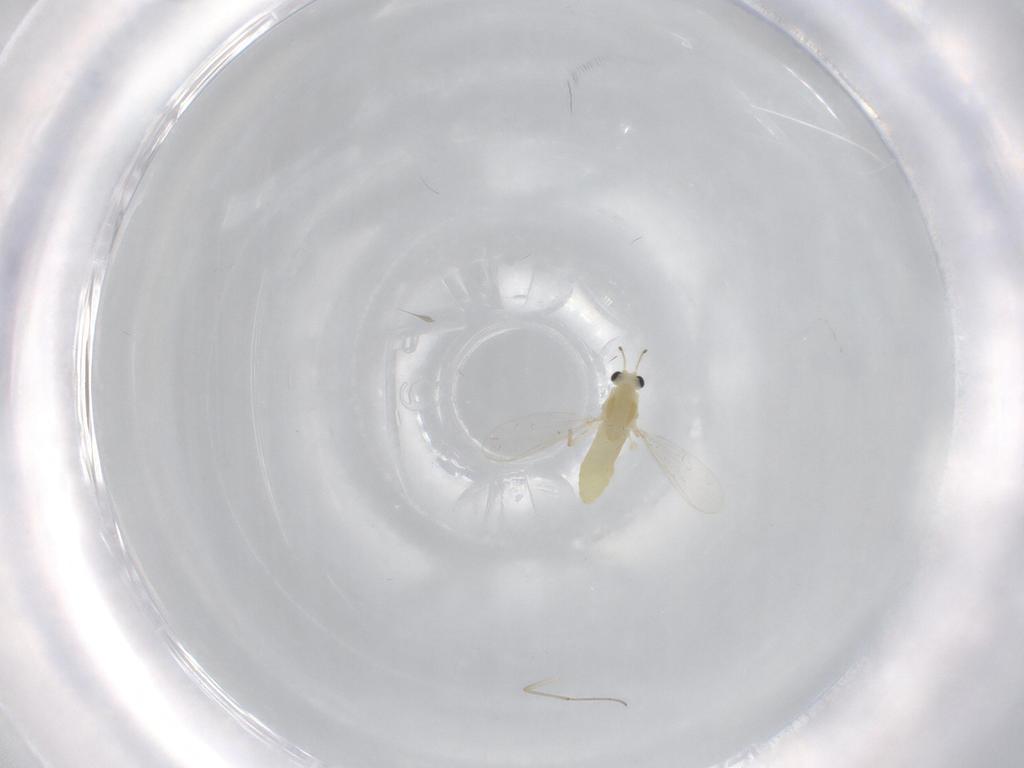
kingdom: Animalia
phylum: Arthropoda
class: Insecta
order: Diptera
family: Chironomidae
